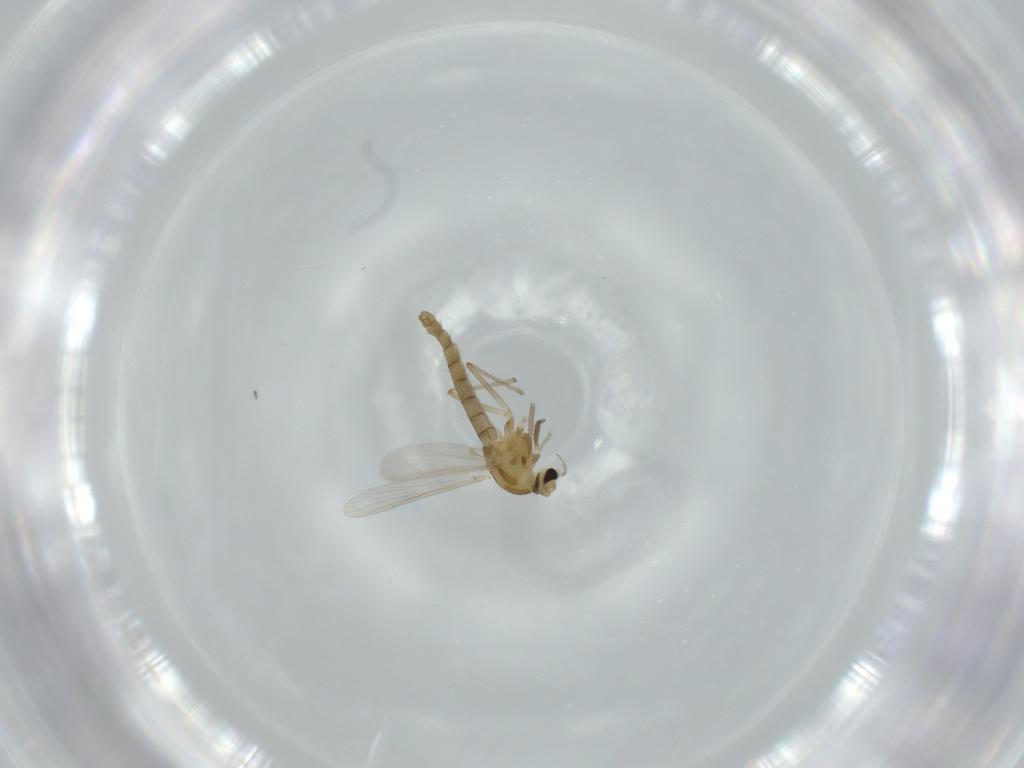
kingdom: Animalia
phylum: Arthropoda
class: Insecta
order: Diptera
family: Chironomidae
